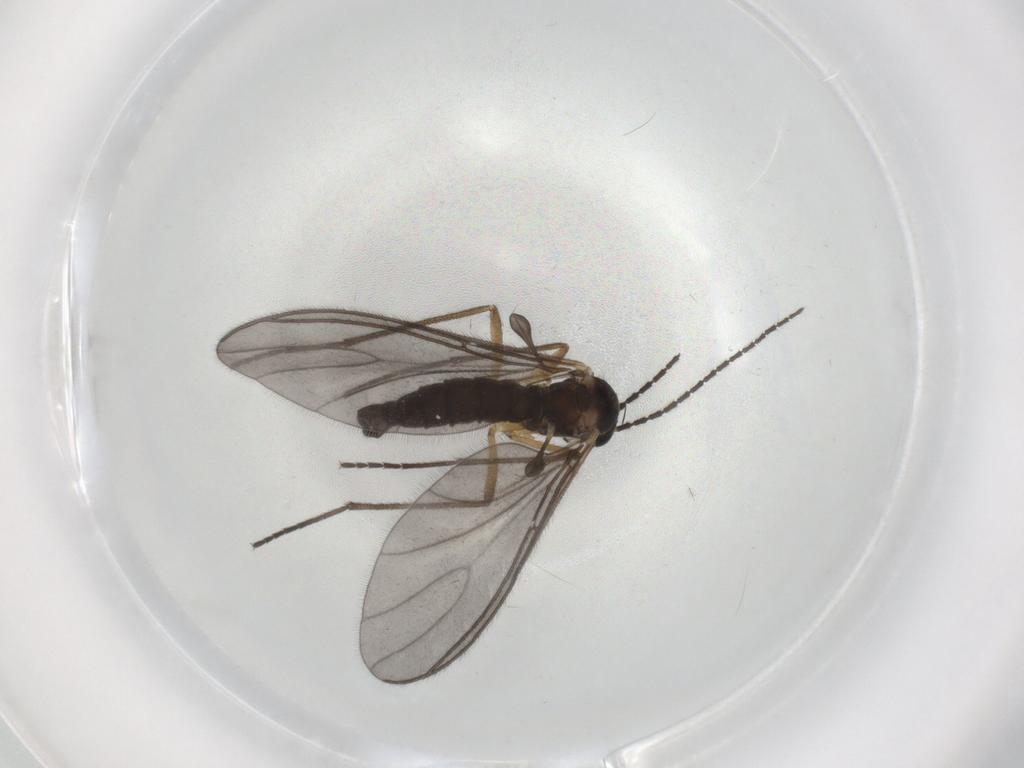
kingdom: Animalia
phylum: Arthropoda
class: Insecta
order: Diptera
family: Sciaridae
